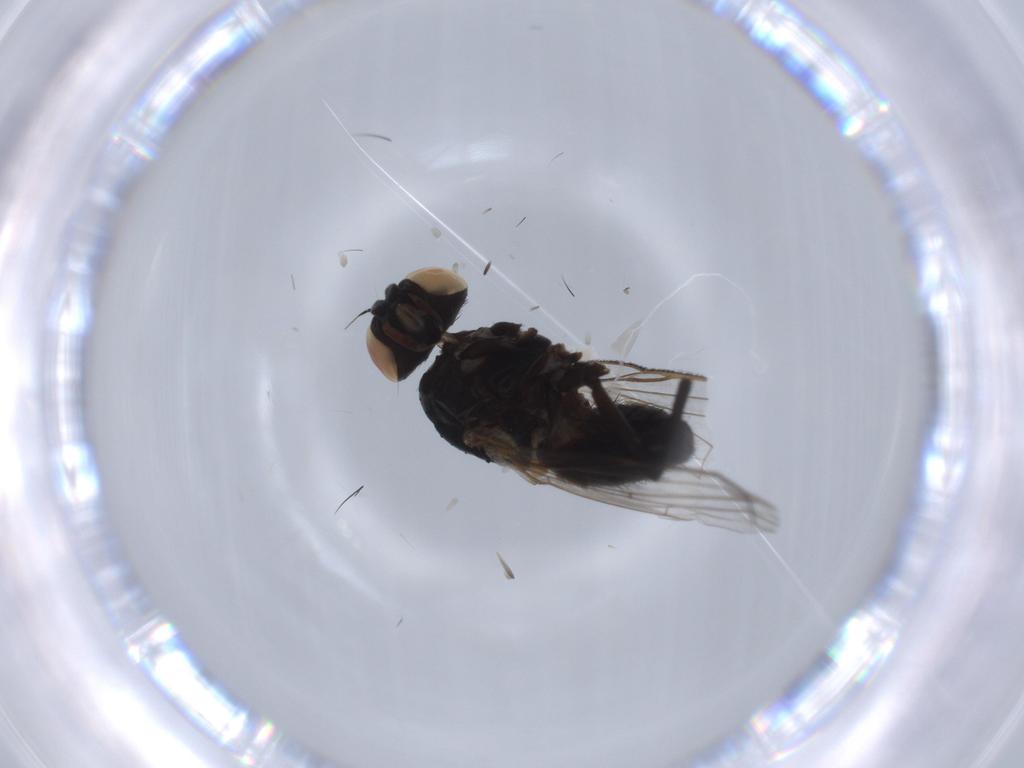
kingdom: Animalia
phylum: Arthropoda
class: Insecta
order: Diptera
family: Tachinidae
